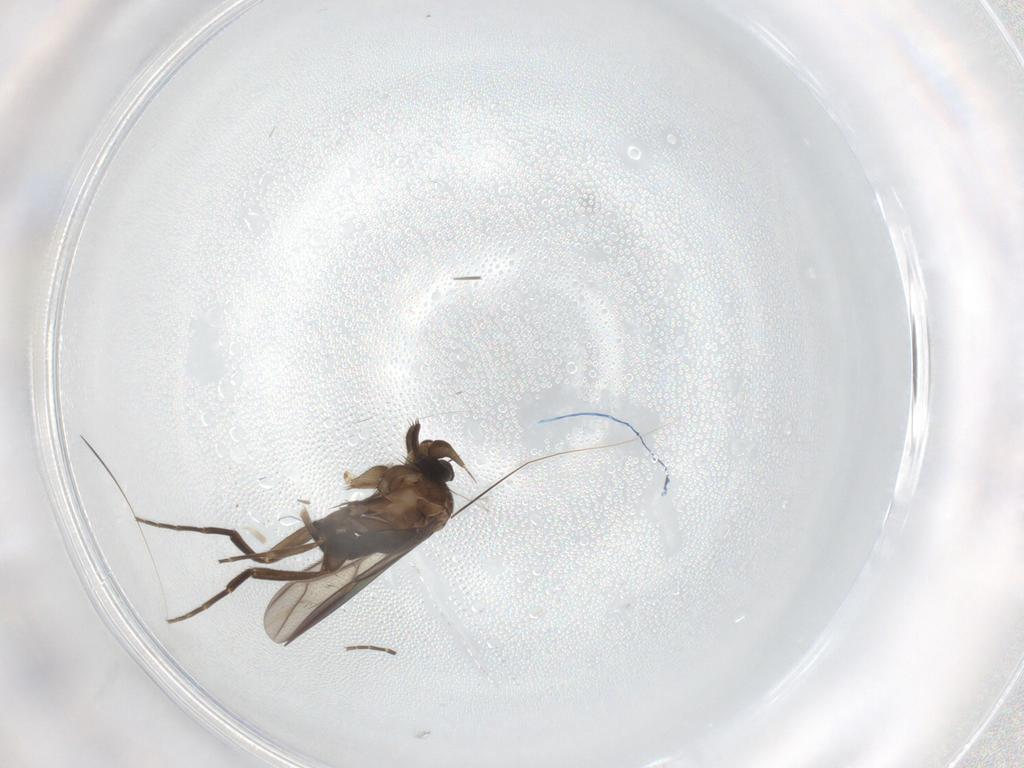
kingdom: Animalia
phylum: Arthropoda
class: Insecta
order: Diptera
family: Phoridae
